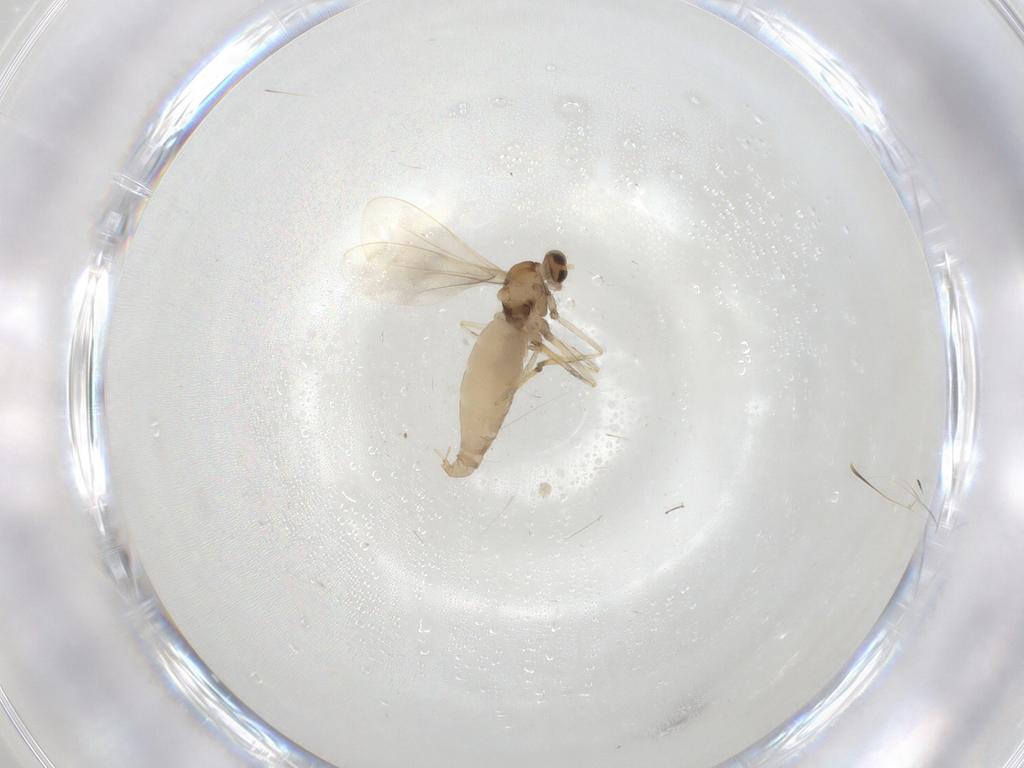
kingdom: Animalia
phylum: Arthropoda
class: Insecta
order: Diptera
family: Cecidomyiidae
